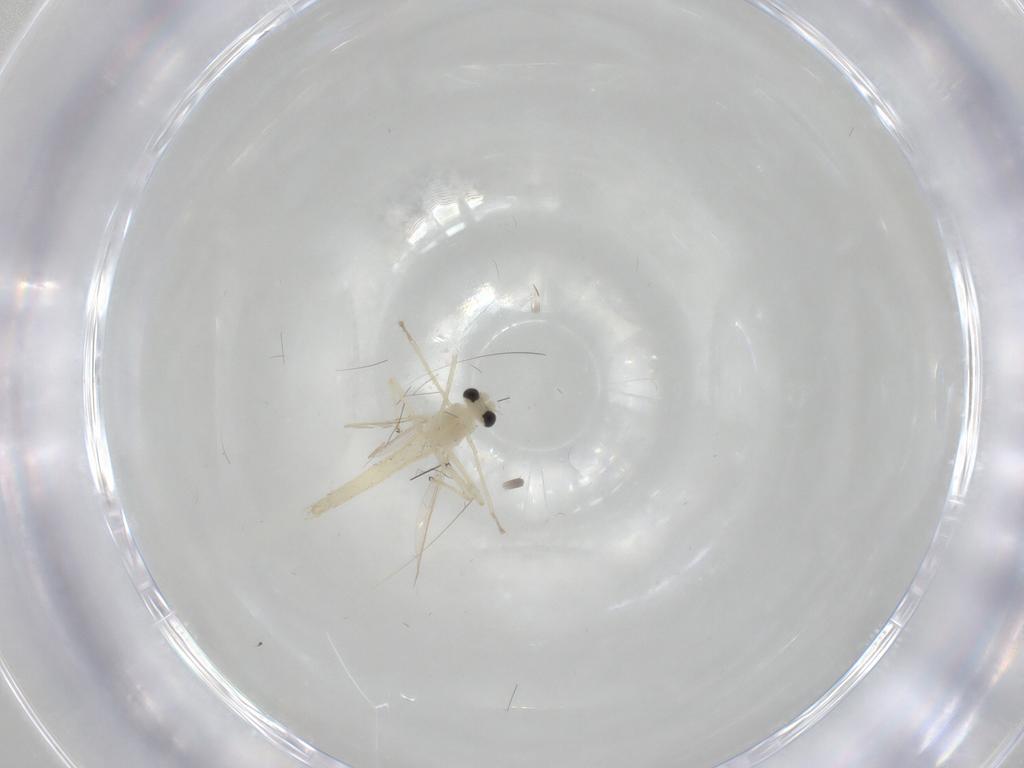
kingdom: Animalia
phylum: Arthropoda
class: Insecta
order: Diptera
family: Chironomidae
